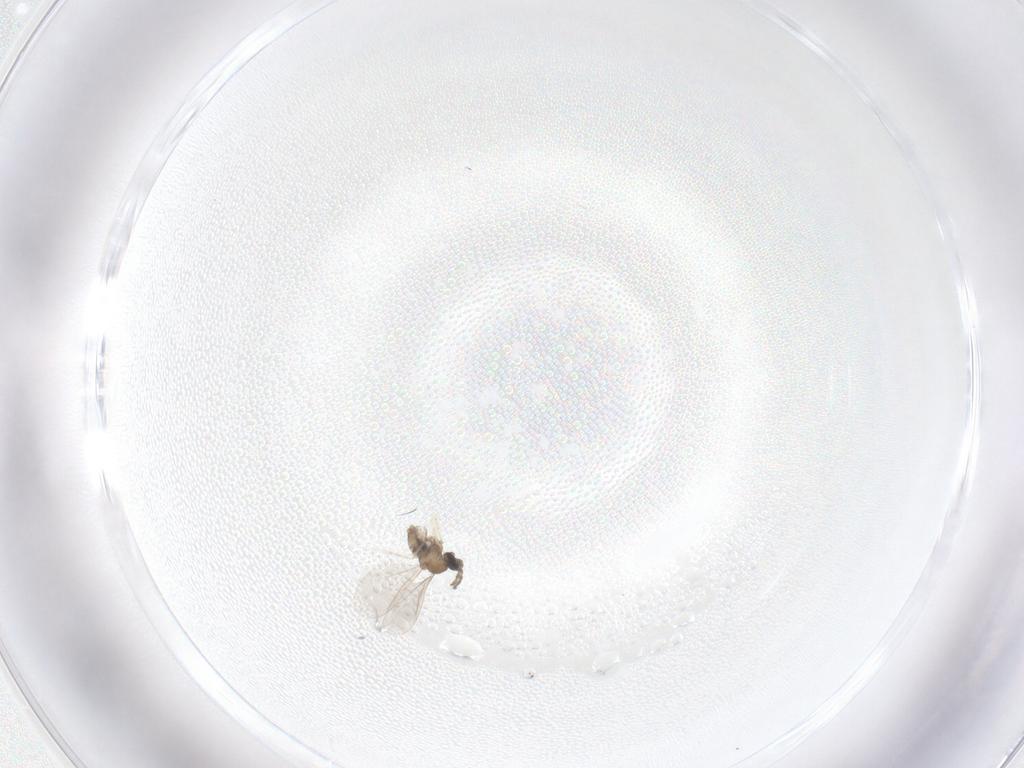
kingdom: Animalia
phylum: Arthropoda
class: Insecta
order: Diptera
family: Cecidomyiidae
